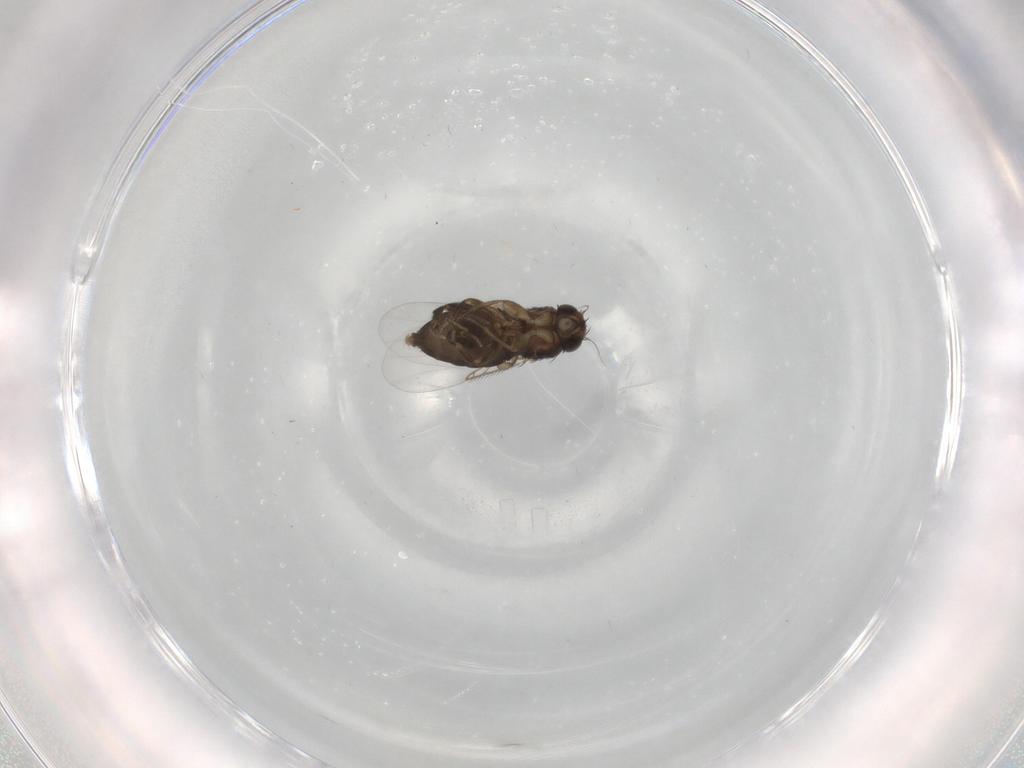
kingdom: Animalia
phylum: Arthropoda
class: Insecta
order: Diptera
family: Phoridae
